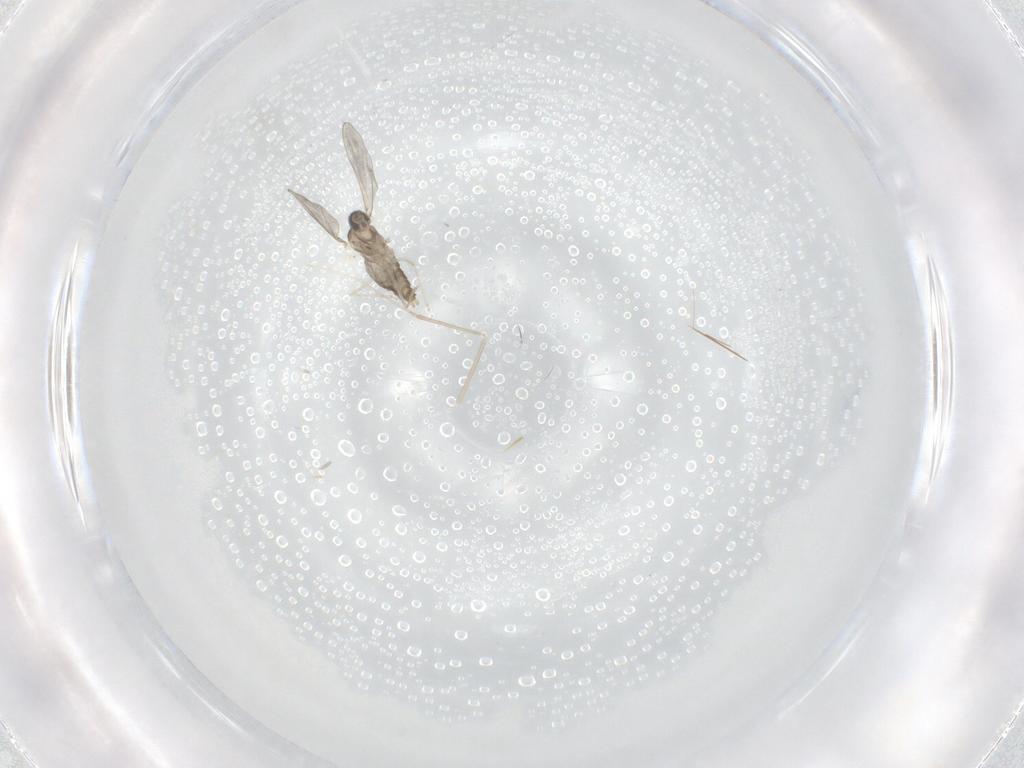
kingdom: Animalia
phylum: Arthropoda
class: Insecta
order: Diptera
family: Cecidomyiidae
